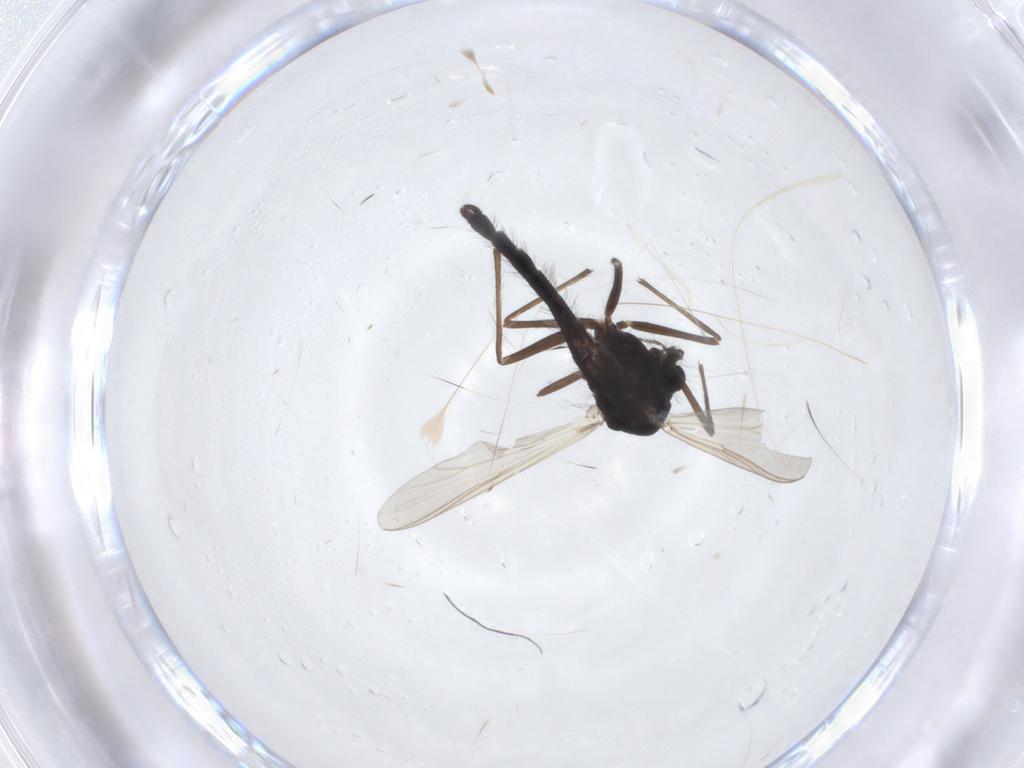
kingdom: Animalia
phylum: Arthropoda
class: Insecta
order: Diptera
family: Chironomidae
